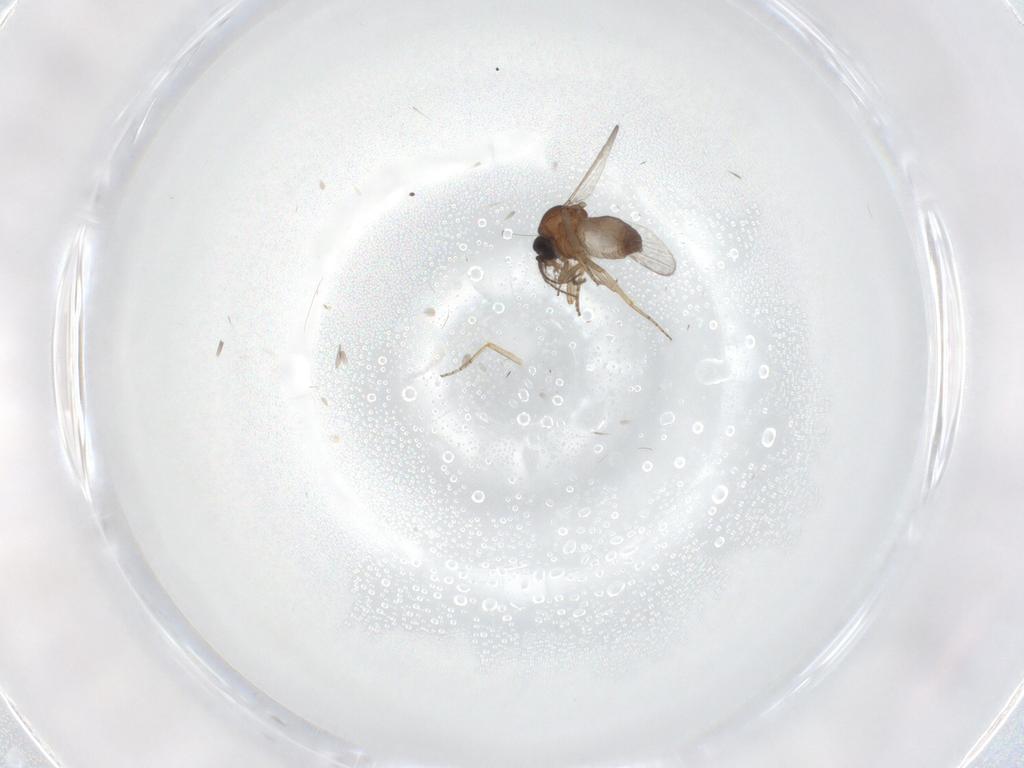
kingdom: Animalia
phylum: Arthropoda
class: Insecta
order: Diptera
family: Ceratopogonidae
